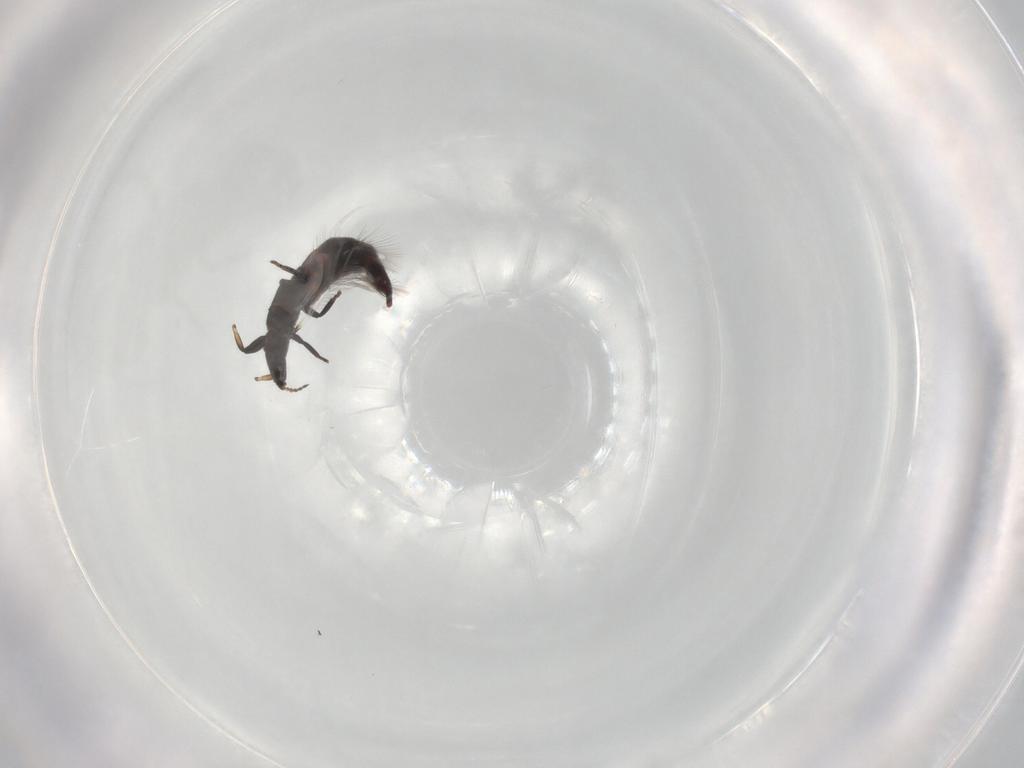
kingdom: Animalia
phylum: Arthropoda
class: Insecta
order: Thysanoptera
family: Phlaeothripidae
